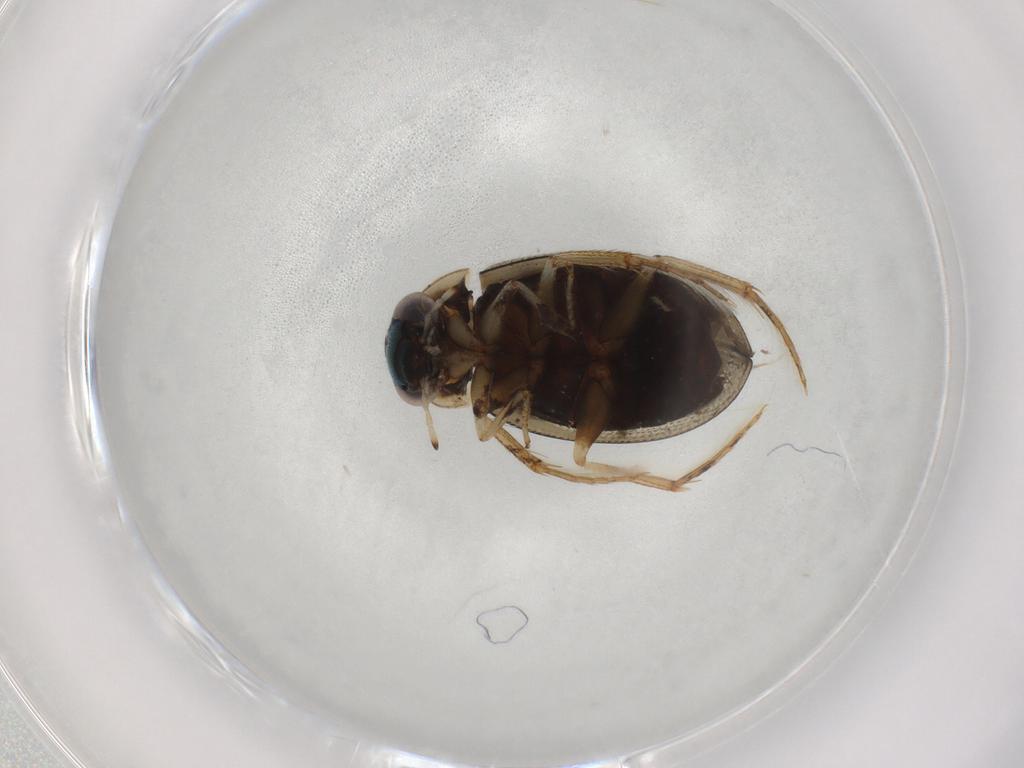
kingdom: Animalia
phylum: Arthropoda
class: Insecta
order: Coleoptera
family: Hydrophilidae
